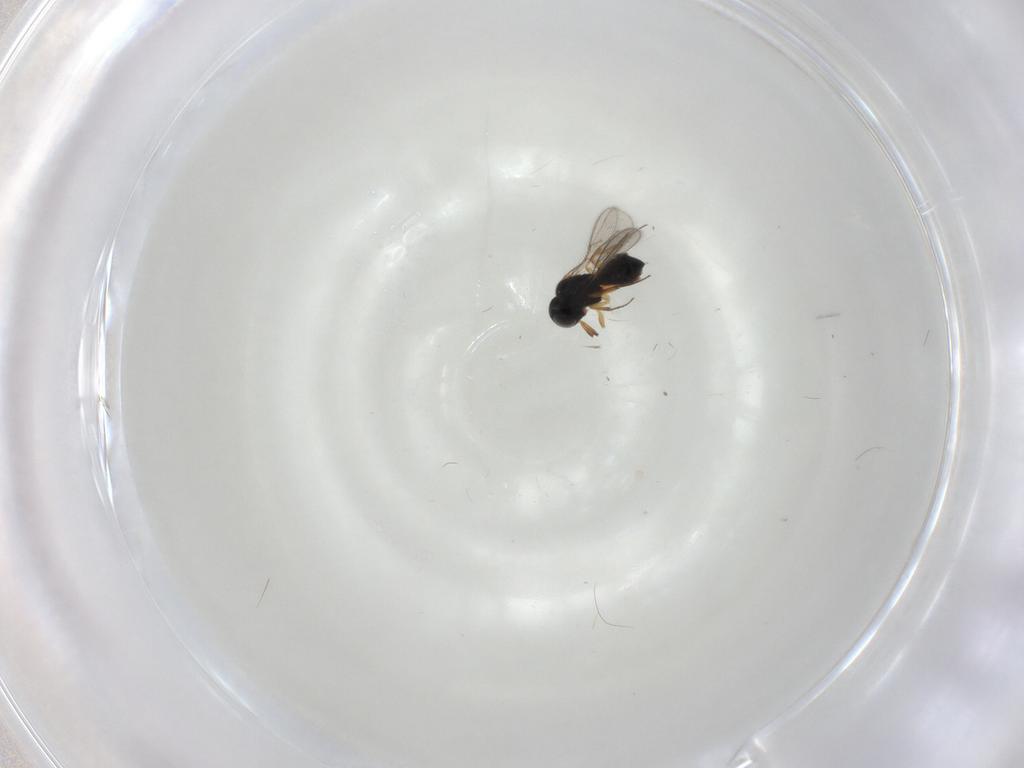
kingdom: Animalia
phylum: Arthropoda
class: Insecta
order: Hymenoptera
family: Scelionidae
